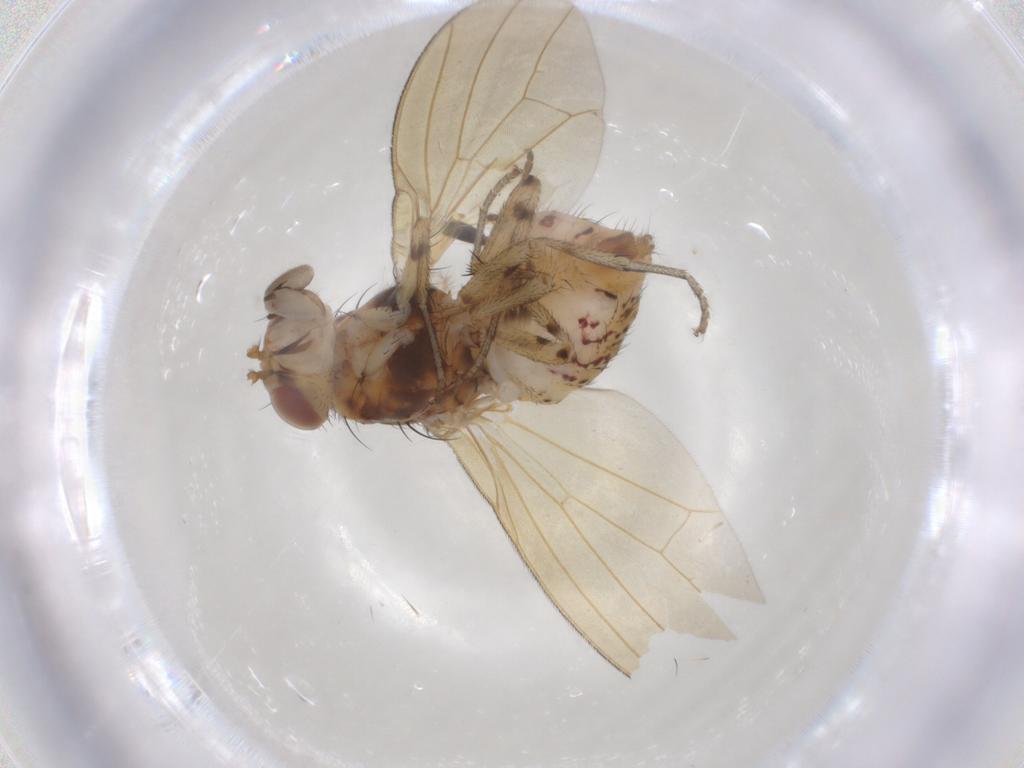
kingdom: Animalia
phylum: Arthropoda
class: Insecta
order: Diptera
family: Lauxaniidae
